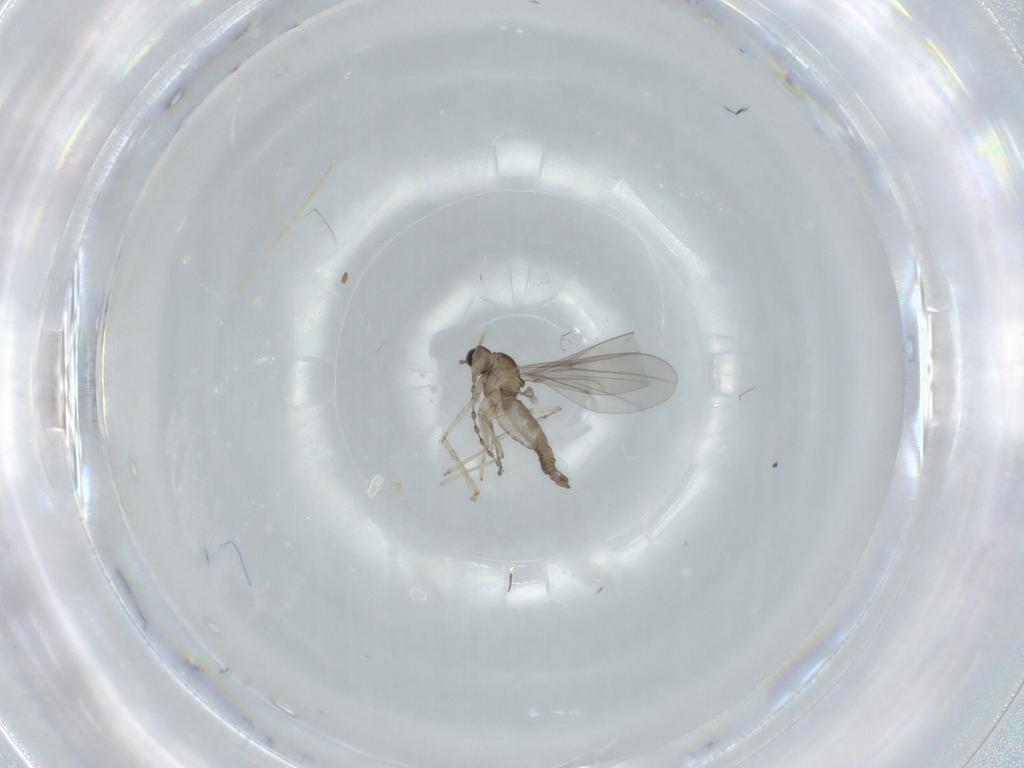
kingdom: Animalia
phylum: Arthropoda
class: Insecta
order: Diptera
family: Cecidomyiidae
